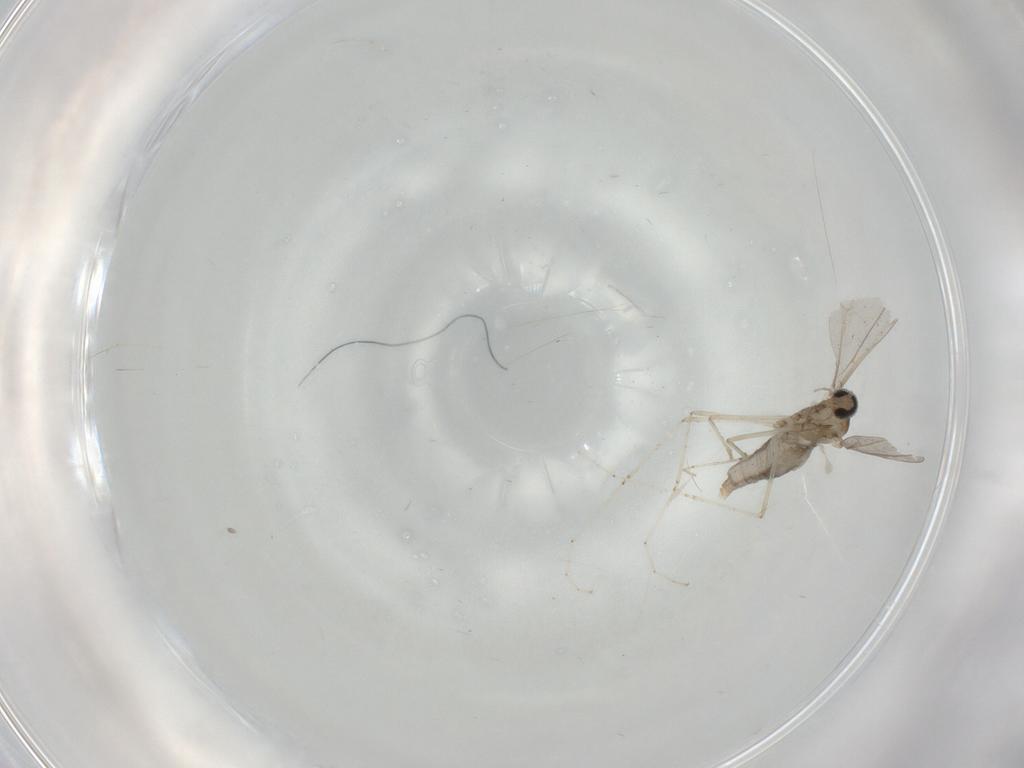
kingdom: Animalia
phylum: Arthropoda
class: Insecta
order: Diptera
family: Cecidomyiidae
